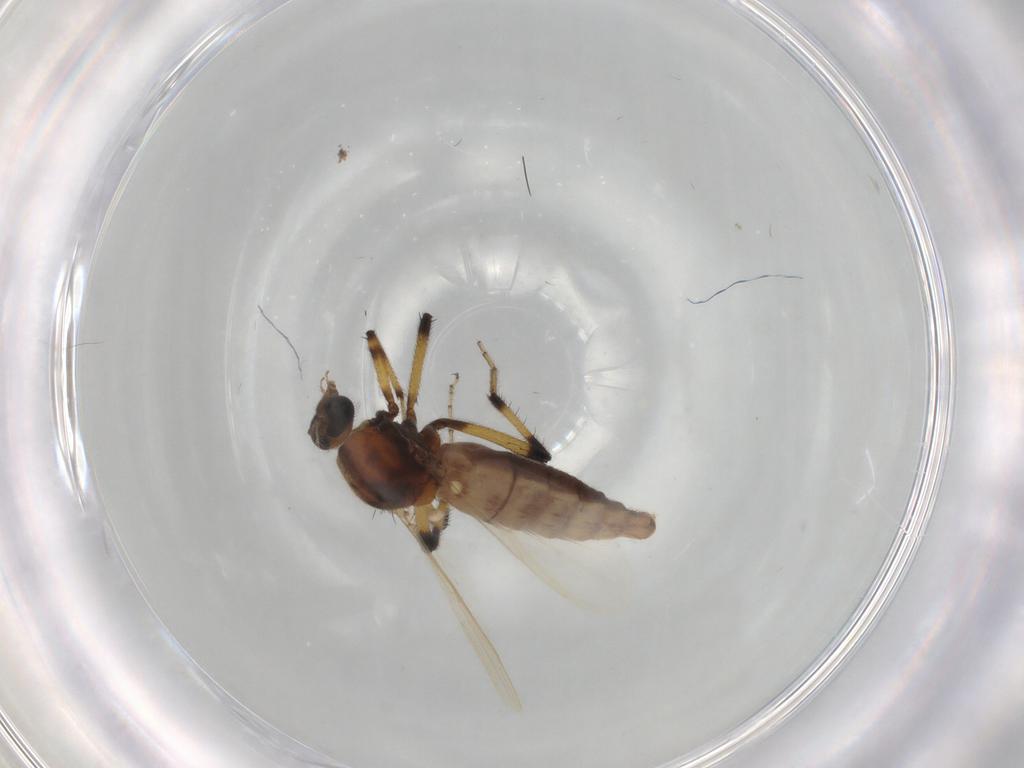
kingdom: Animalia
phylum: Arthropoda
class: Insecta
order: Diptera
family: Ceratopogonidae
